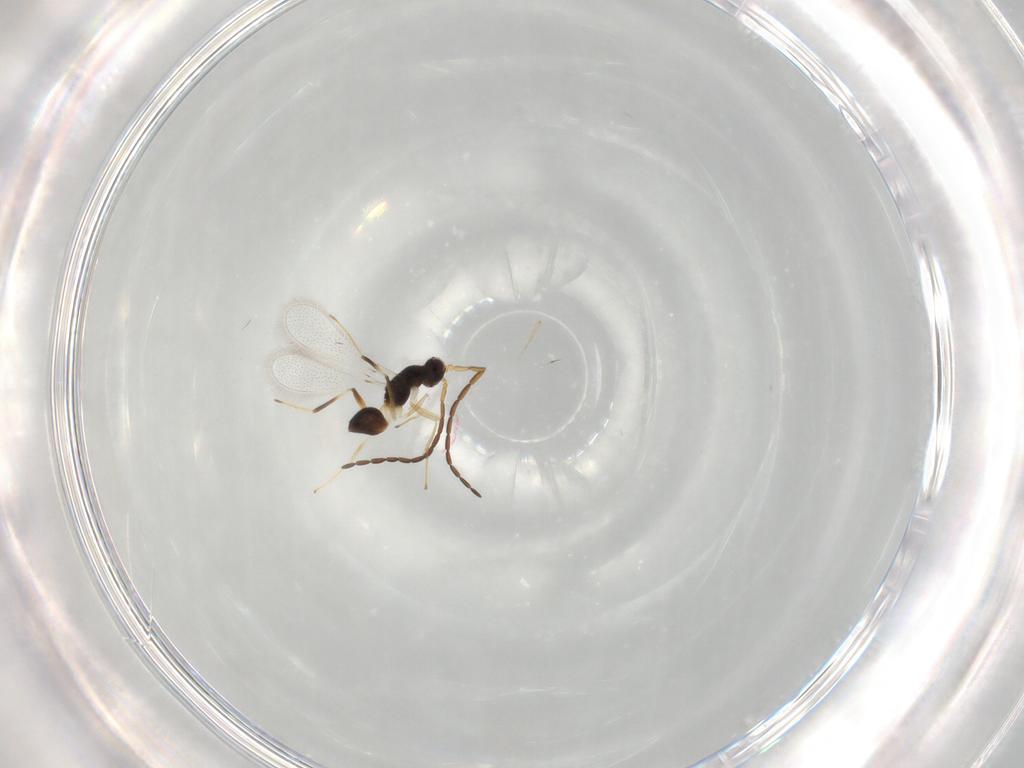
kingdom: Animalia
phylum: Arthropoda
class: Insecta
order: Hymenoptera
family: Mymaridae
